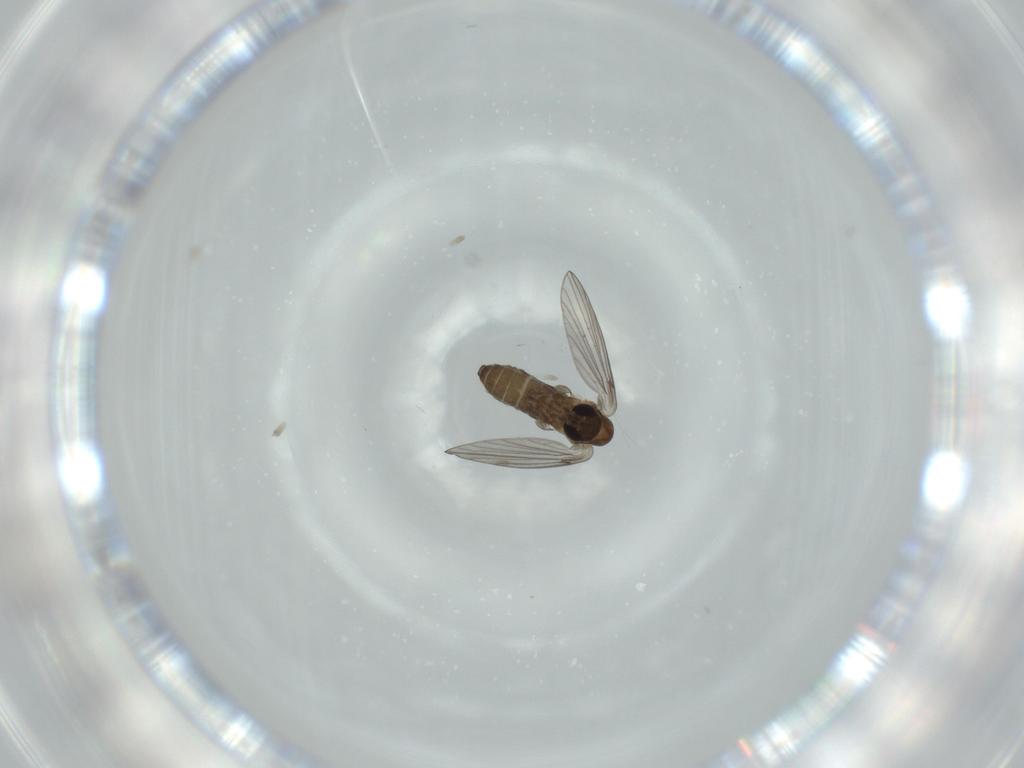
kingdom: Animalia
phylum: Arthropoda
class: Insecta
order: Diptera
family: Psychodidae
